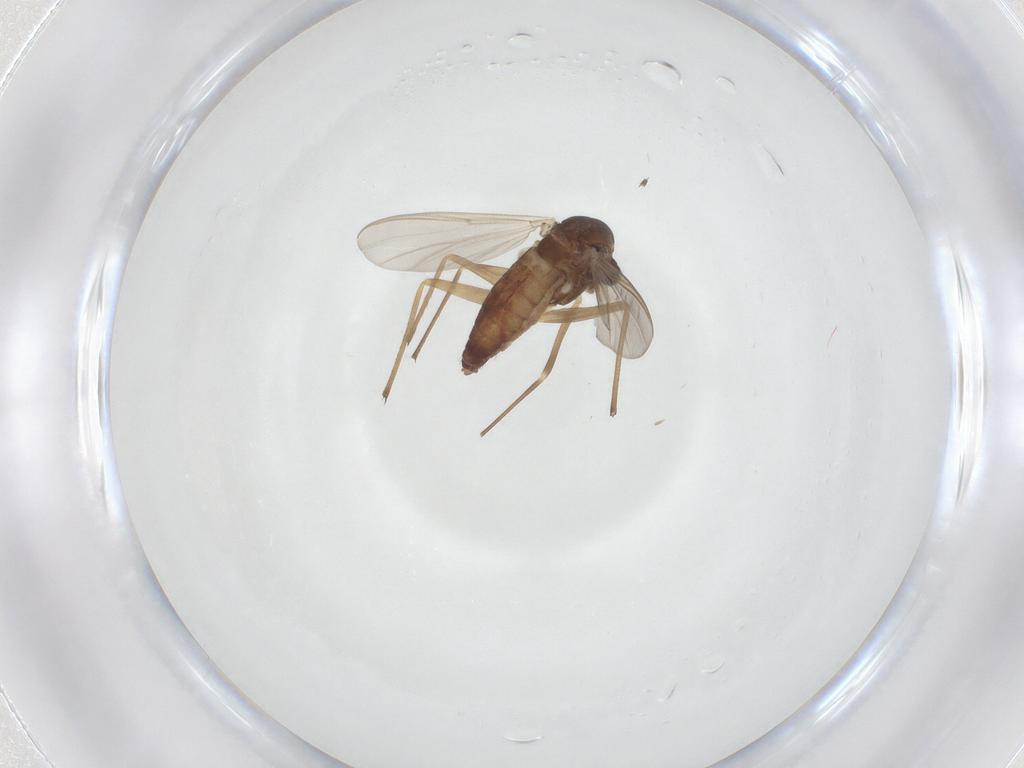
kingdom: Animalia
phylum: Arthropoda
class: Insecta
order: Diptera
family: Chironomidae
